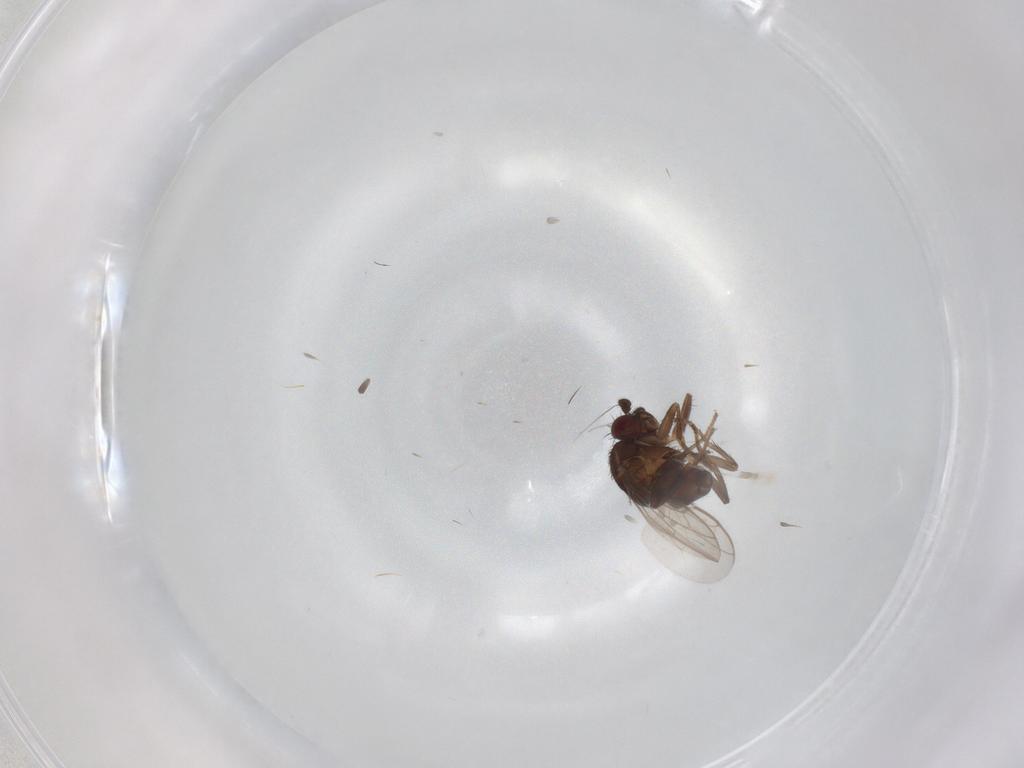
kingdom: Animalia
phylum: Arthropoda
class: Insecta
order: Diptera
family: Sphaeroceridae
